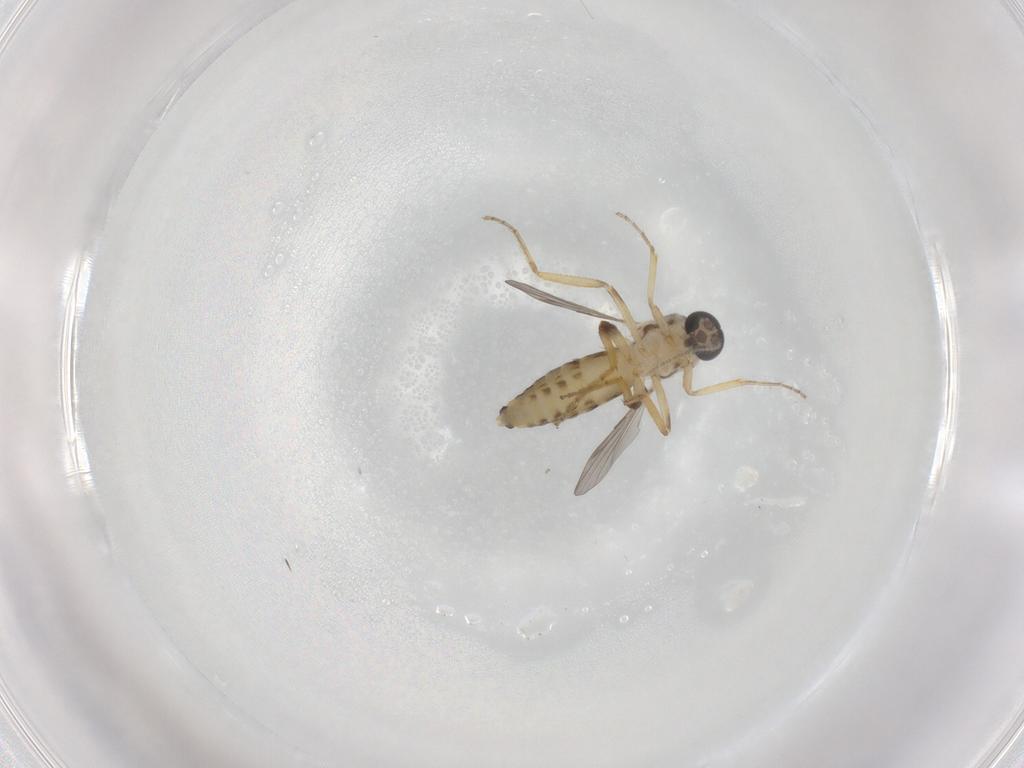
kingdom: Animalia
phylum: Arthropoda
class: Insecta
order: Diptera
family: Ceratopogonidae
